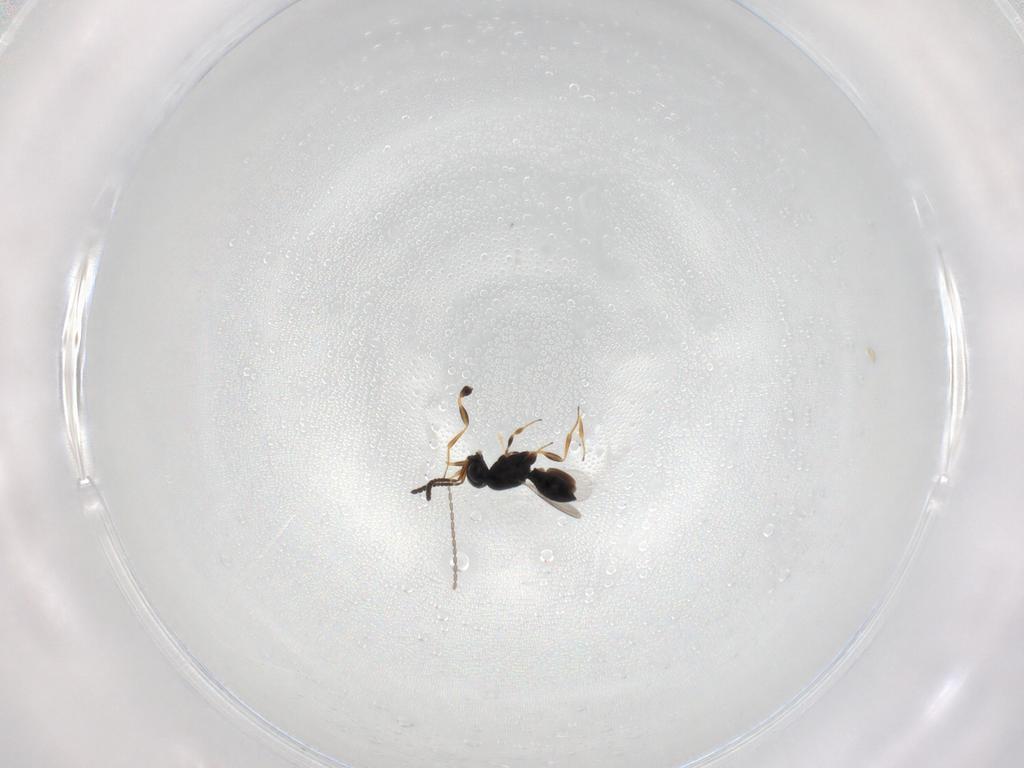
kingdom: Animalia
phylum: Arthropoda
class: Insecta
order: Hymenoptera
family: Scelionidae
